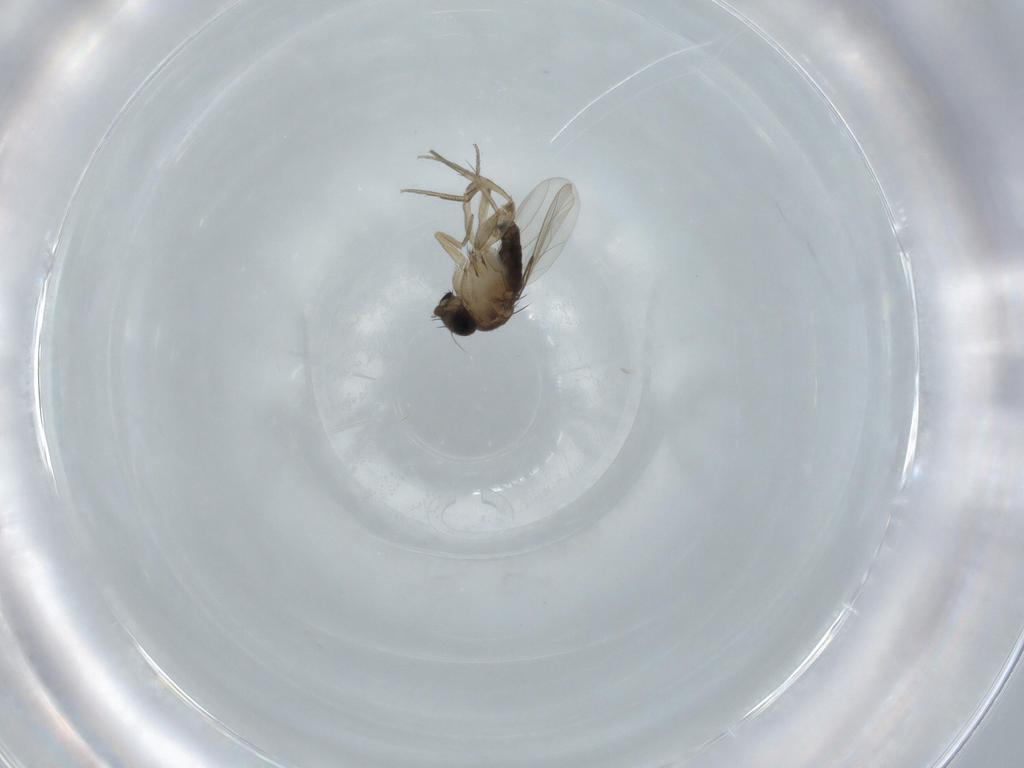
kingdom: Animalia
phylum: Arthropoda
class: Insecta
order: Diptera
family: Phoridae
